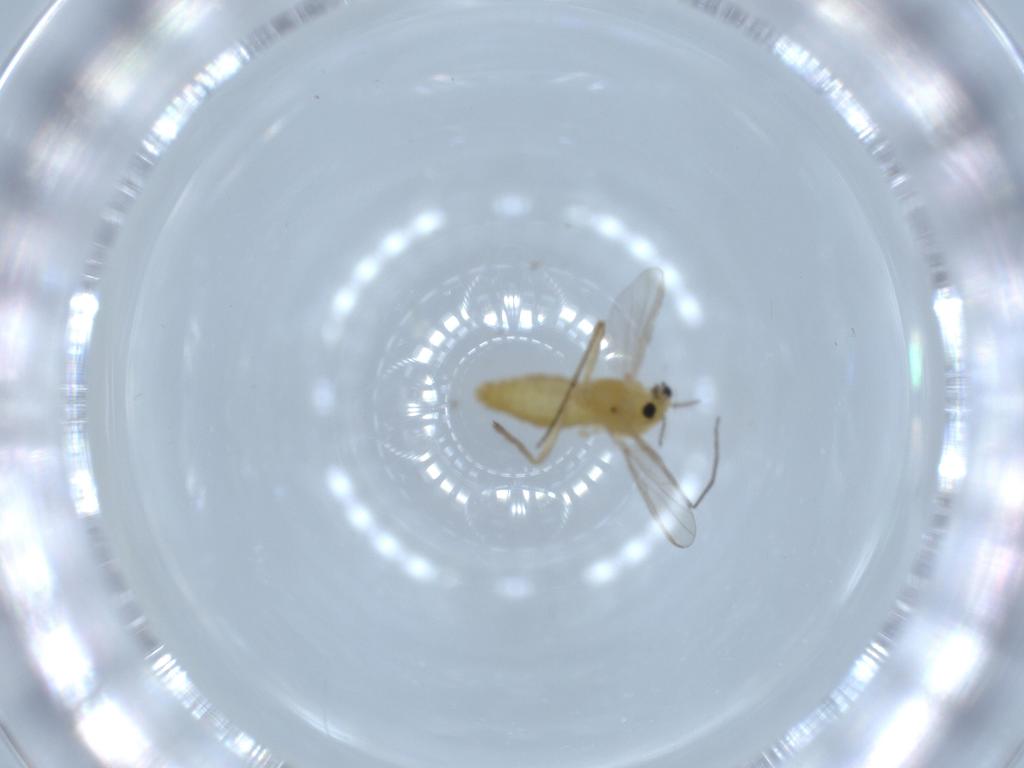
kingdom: Animalia
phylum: Arthropoda
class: Insecta
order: Diptera
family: Chironomidae
